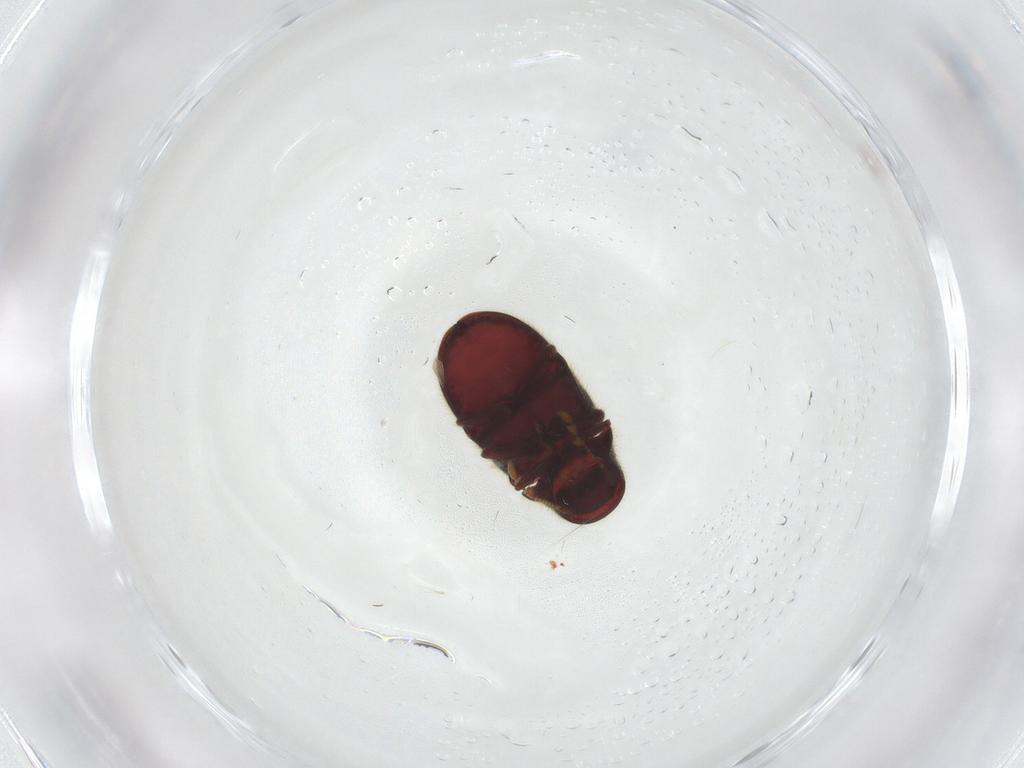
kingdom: Animalia
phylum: Arthropoda
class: Insecta
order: Coleoptera
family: Ptinidae
